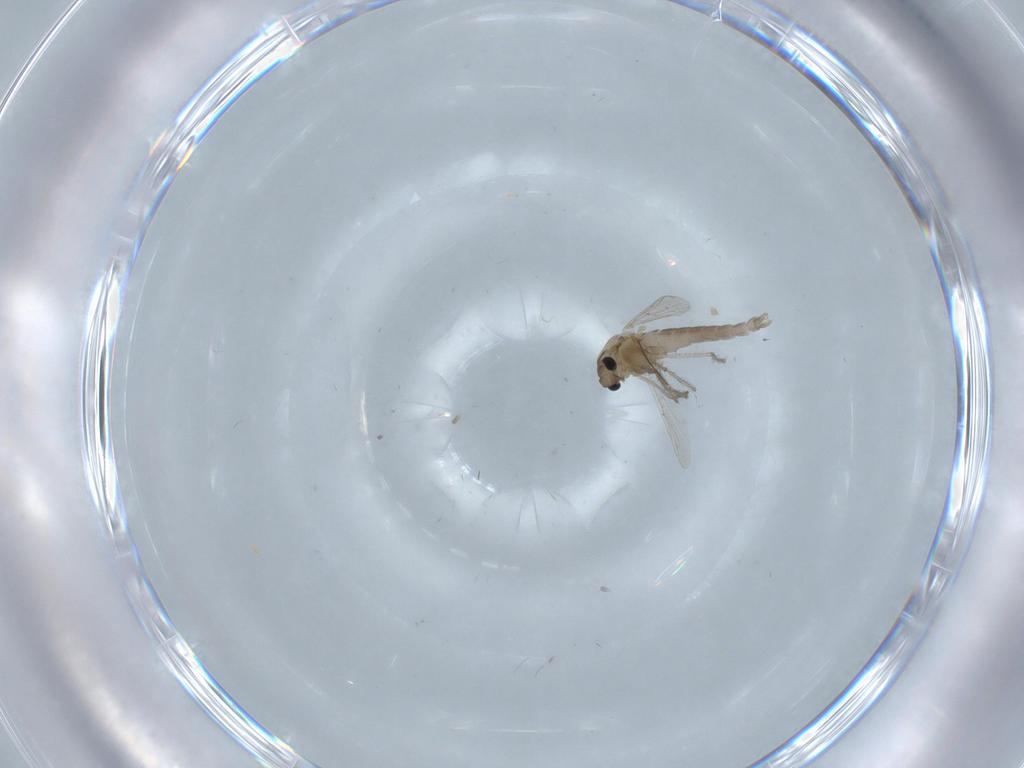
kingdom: Animalia
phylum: Arthropoda
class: Insecta
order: Diptera
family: Chironomidae
